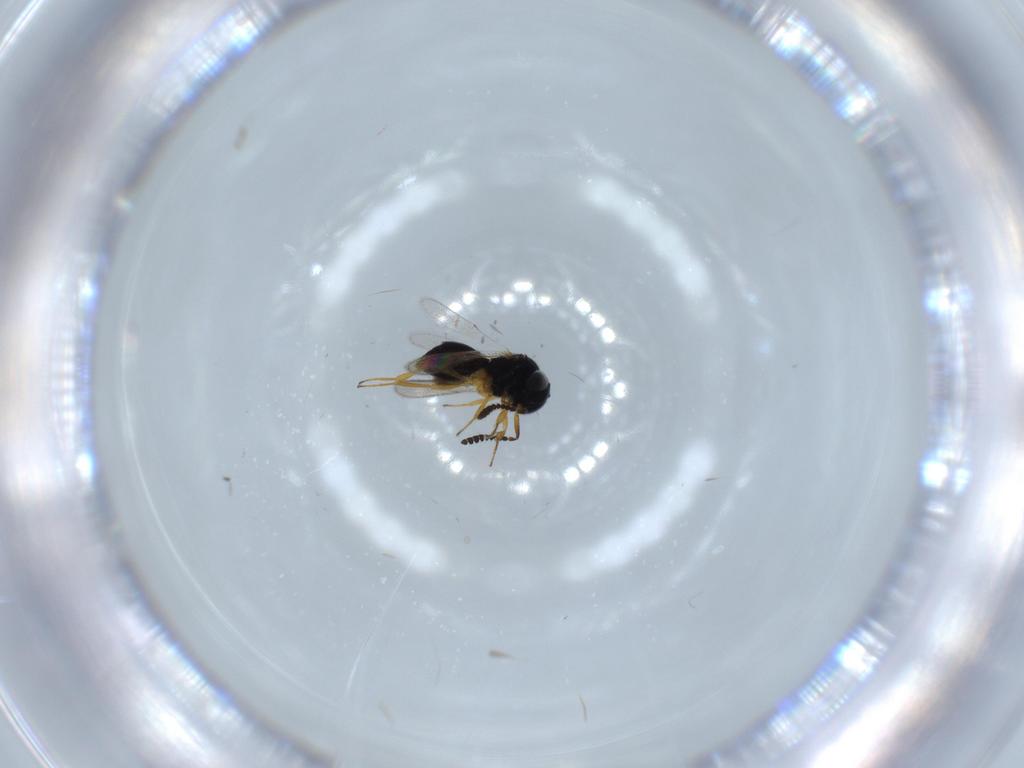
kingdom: Animalia
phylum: Arthropoda
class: Insecta
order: Hymenoptera
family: Scelionidae
